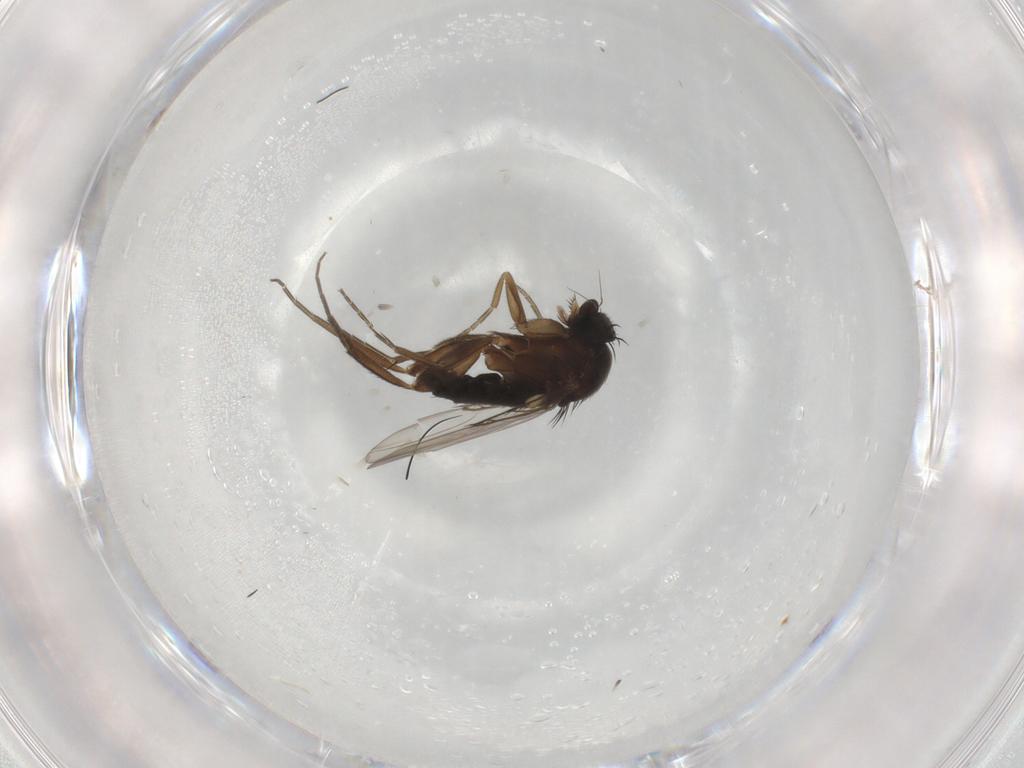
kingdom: Animalia
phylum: Arthropoda
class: Insecta
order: Diptera
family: Phoridae
